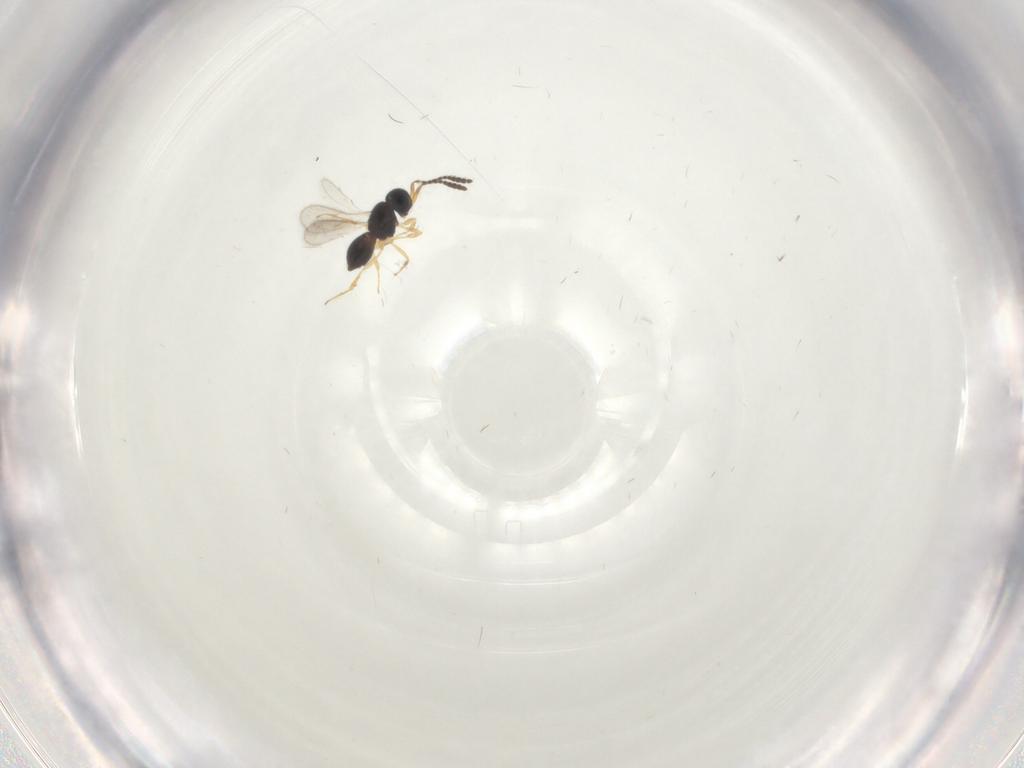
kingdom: Animalia
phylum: Arthropoda
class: Insecta
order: Hymenoptera
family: Scelionidae
